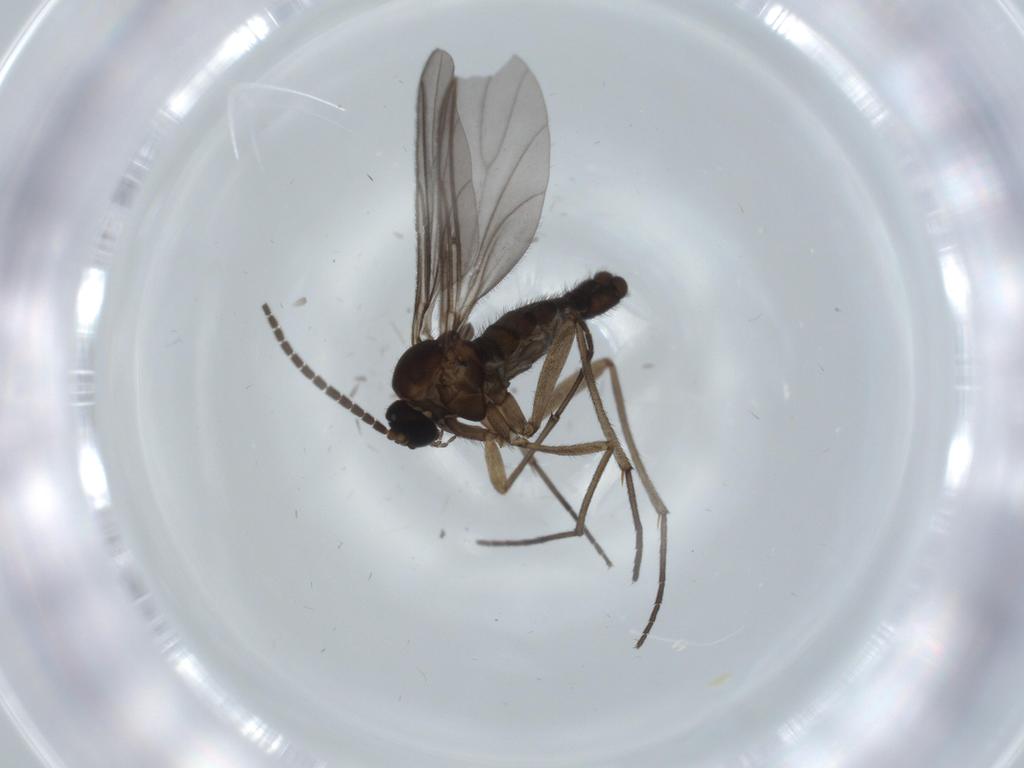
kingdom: Animalia
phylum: Arthropoda
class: Insecta
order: Diptera
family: Sciaridae
